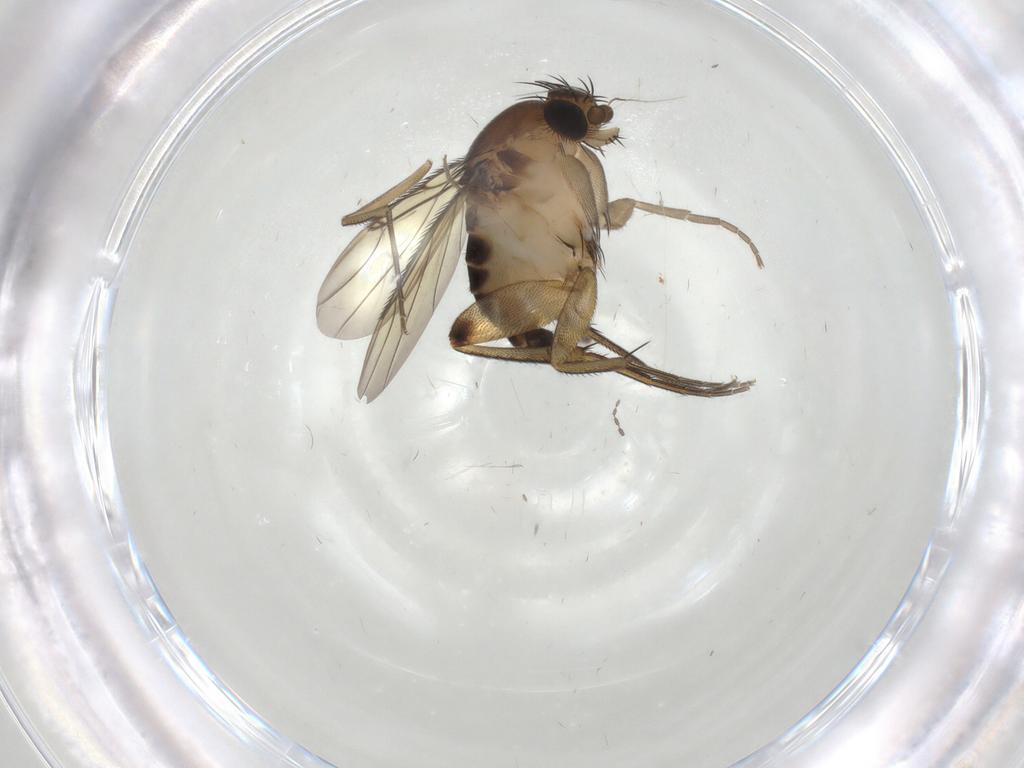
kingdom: Animalia
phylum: Arthropoda
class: Insecta
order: Diptera
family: Phoridae
